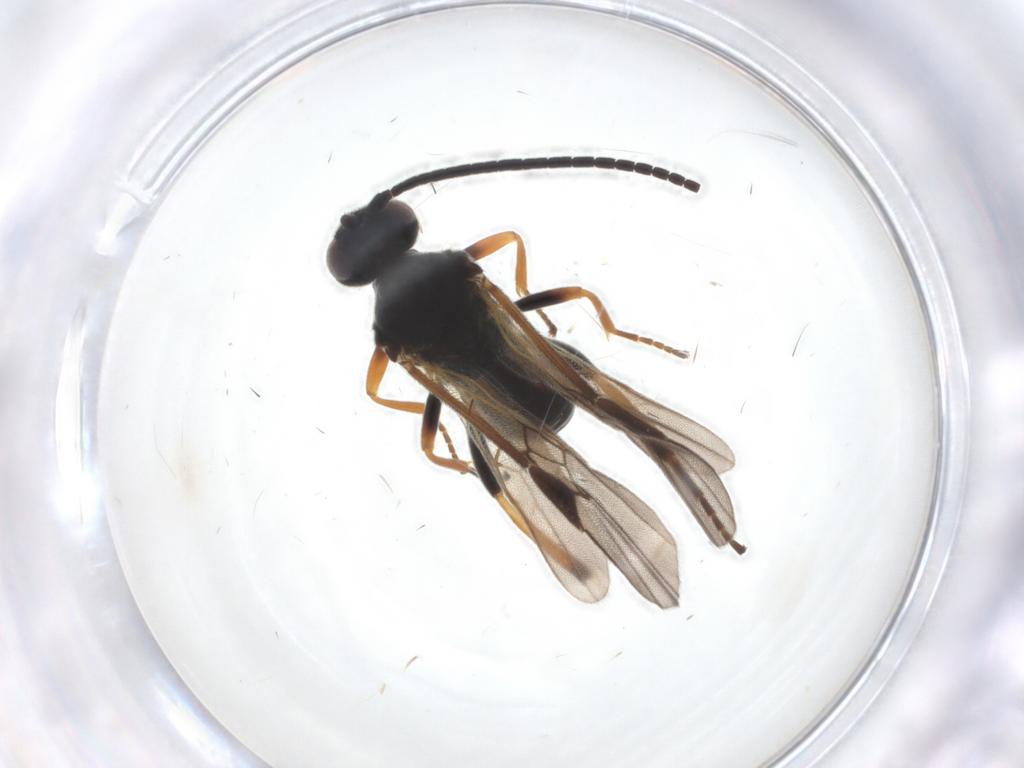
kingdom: Animalia
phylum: Arthropoda
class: Insecta
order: Hymenoptera
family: Braconidae
